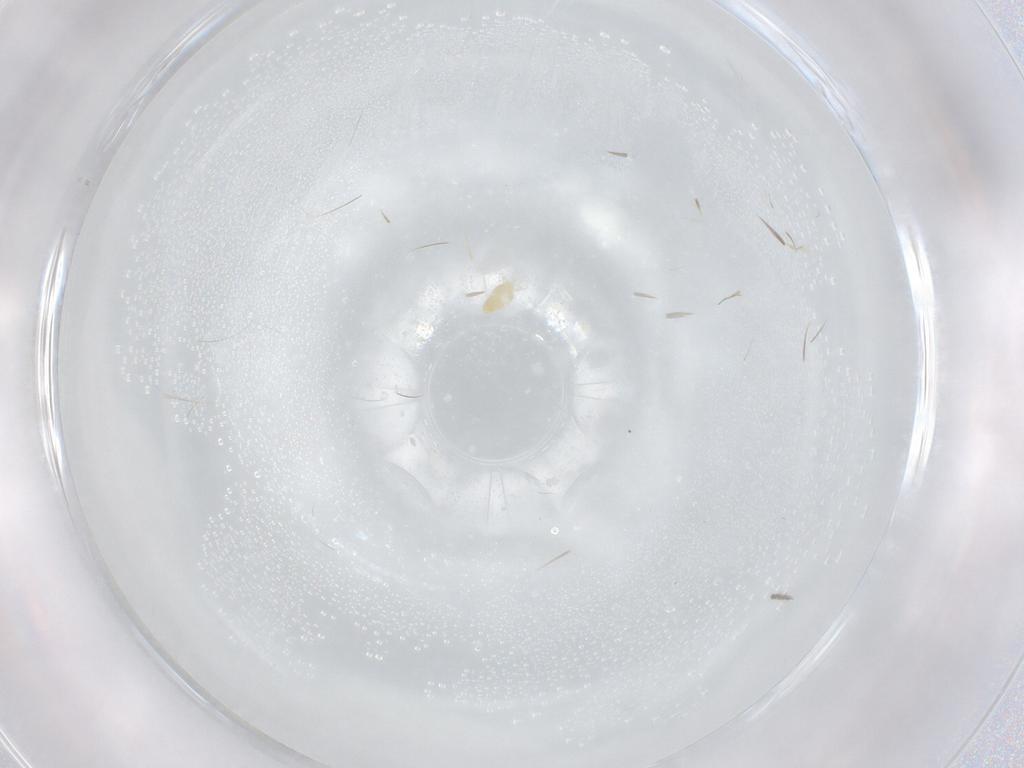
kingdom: Animalia
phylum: Arthropoda
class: Arachnida
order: Trombidiformes
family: Eupodidae
